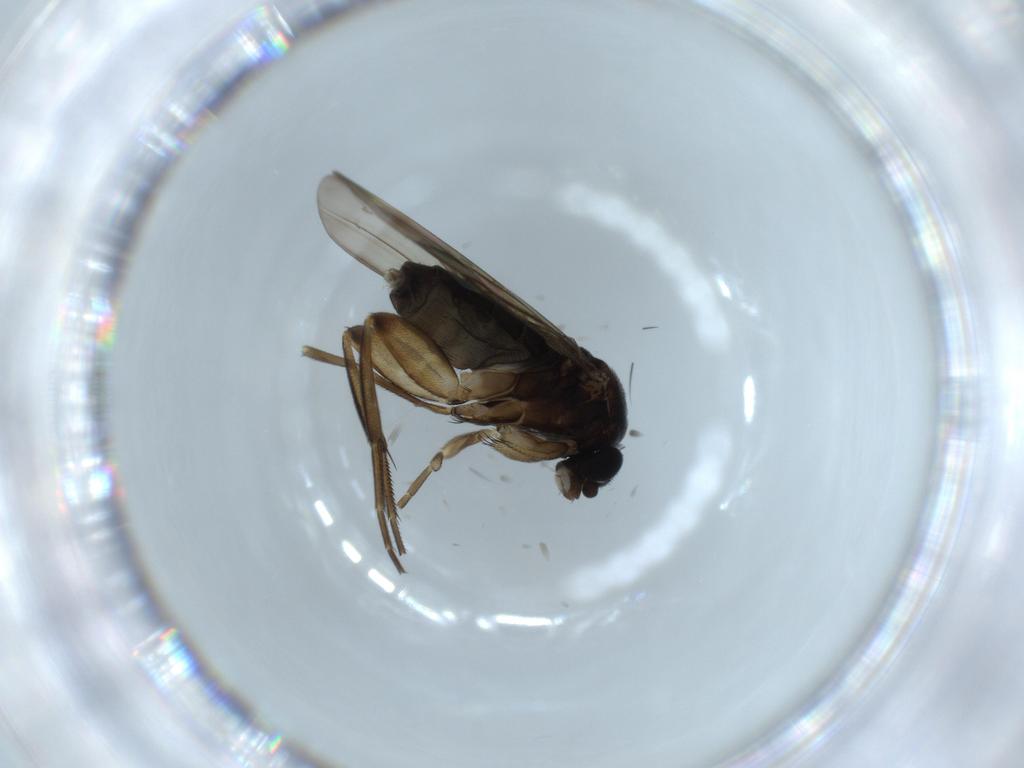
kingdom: Animalia
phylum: Arthropoda
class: Insecta
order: Diptera
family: Phoridae
